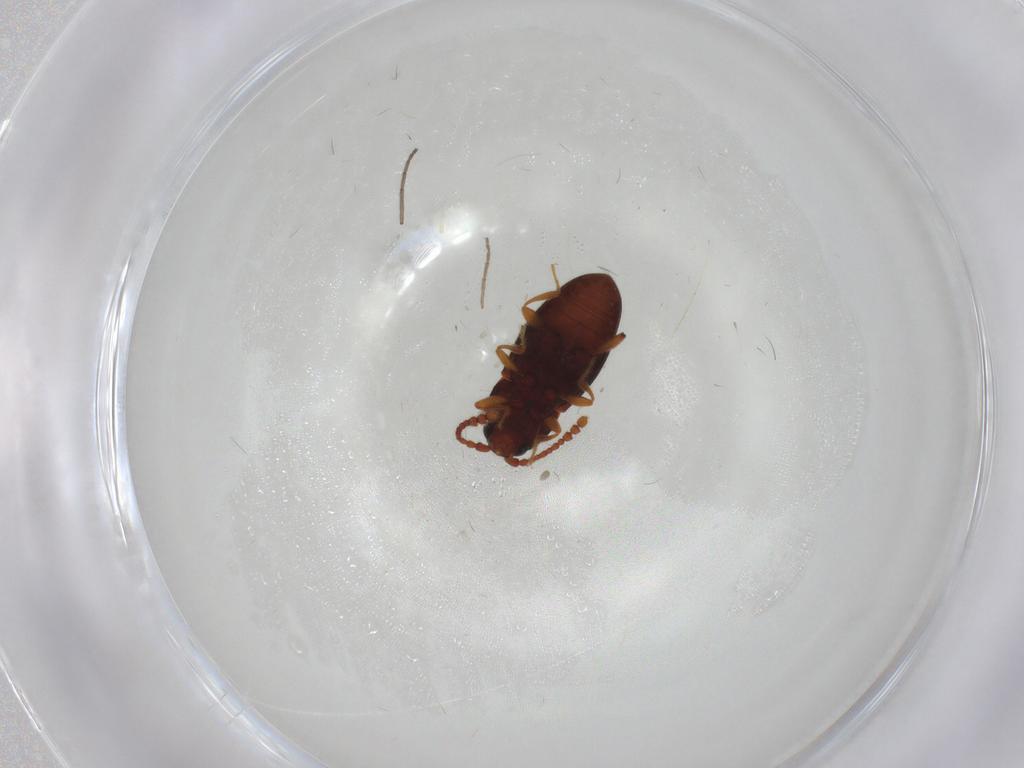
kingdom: Animalia
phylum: Arthropoda
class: Insecta
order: Coleoptera
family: Cryptophagidae
